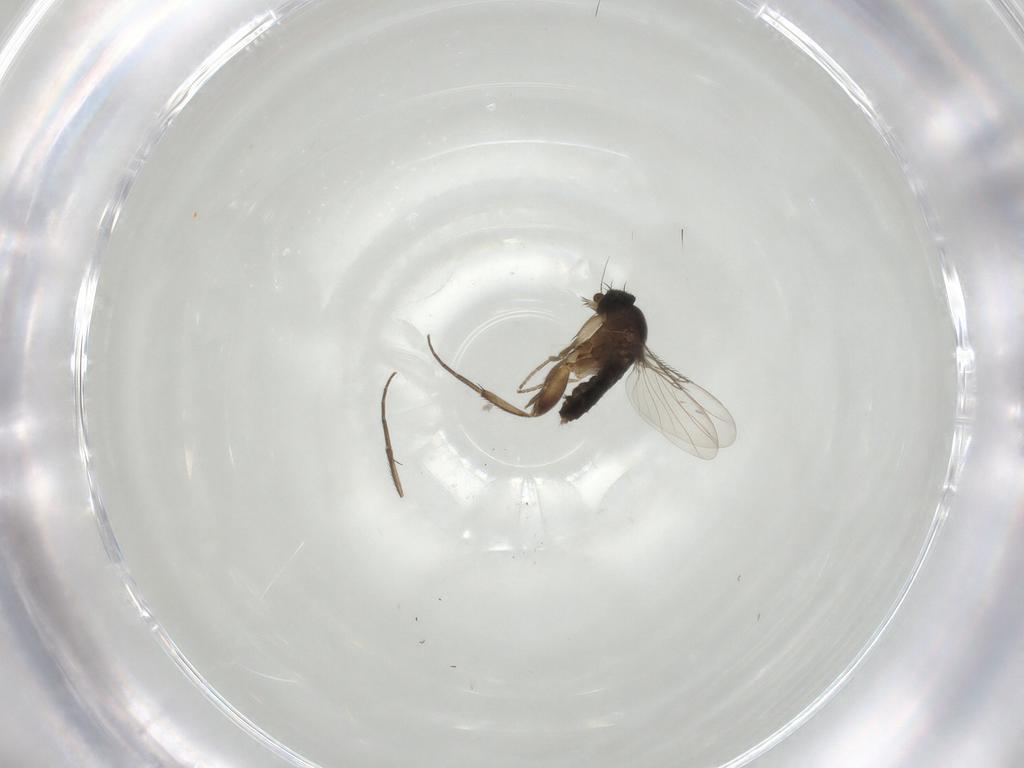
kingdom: Animalia
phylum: Arthropoda
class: Insecta
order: Diptera
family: Phoridae
